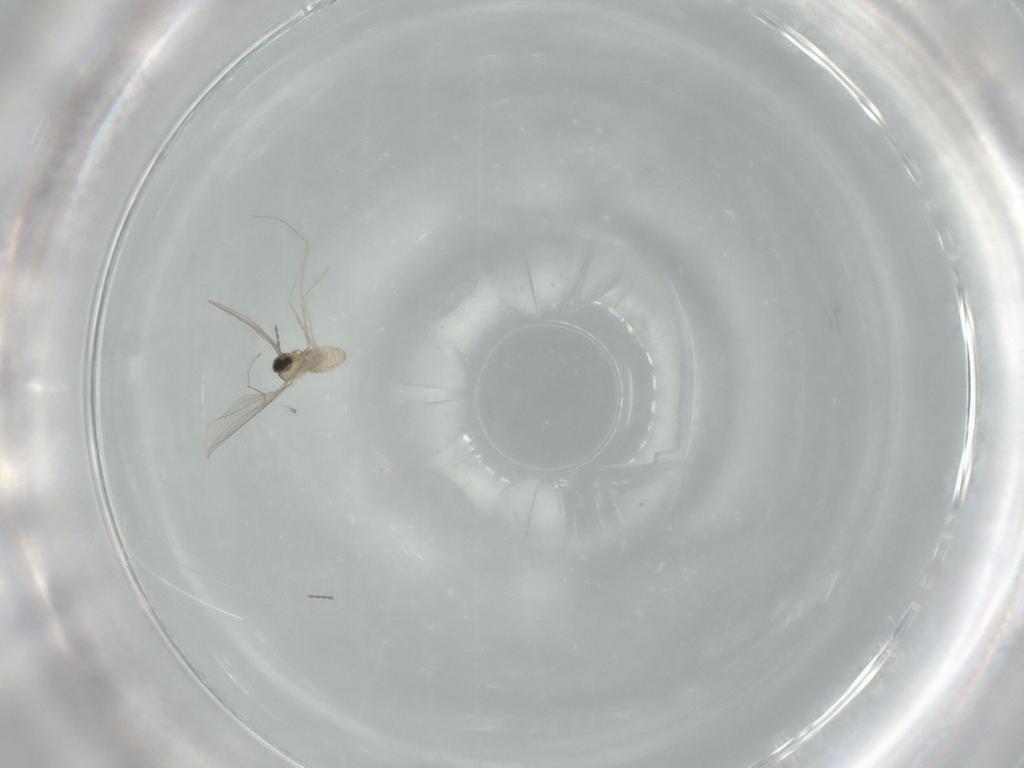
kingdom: Animalia
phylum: Arthropoda
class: Insecta
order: Diptera
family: Cecidomyiidae
